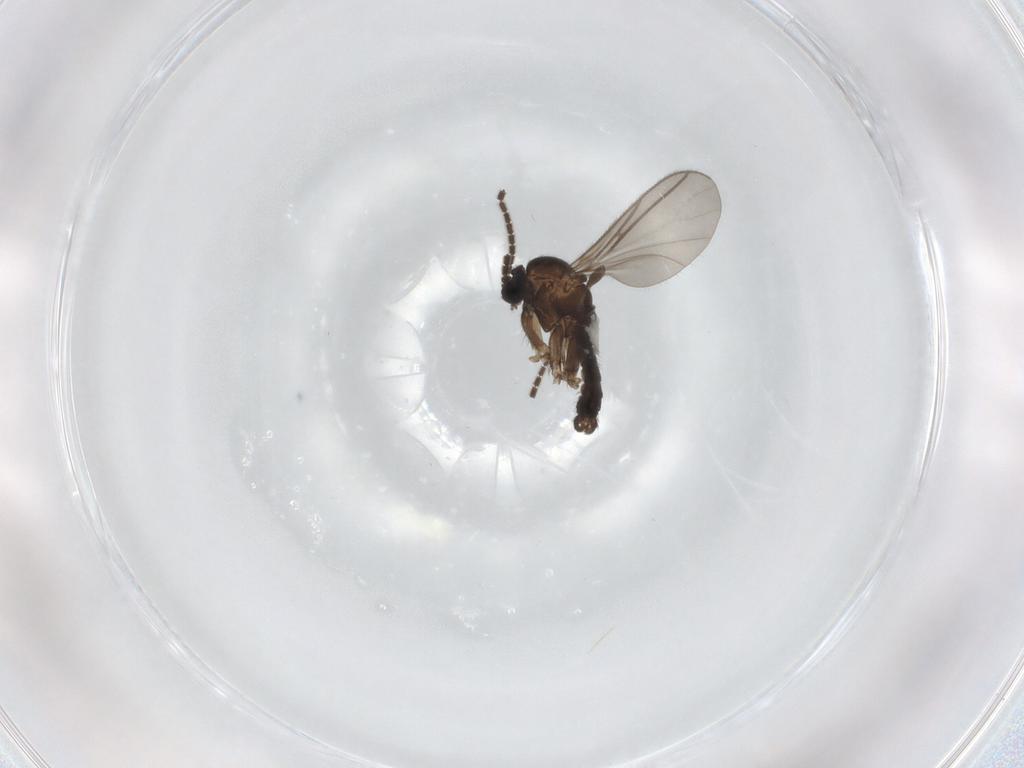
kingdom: Animalia
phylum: Arthropoda
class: Insecta
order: Diptera
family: Sciaridae
